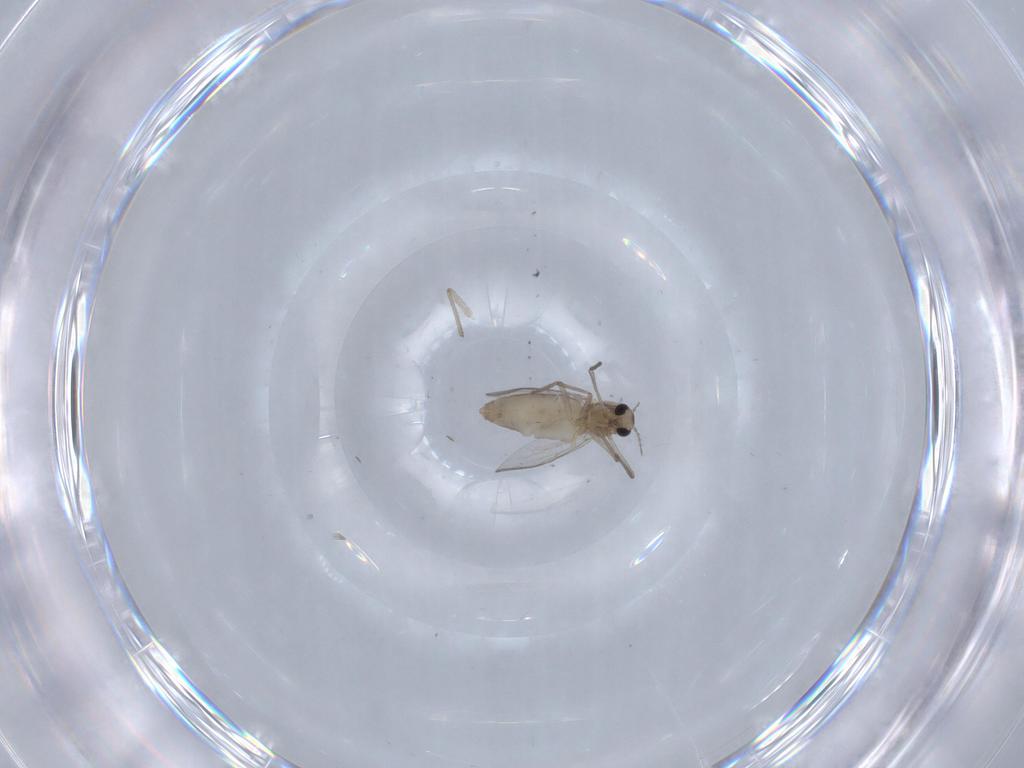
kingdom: Animalia
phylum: Arthropoda
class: Insecta
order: Diptera
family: Chironomidae
